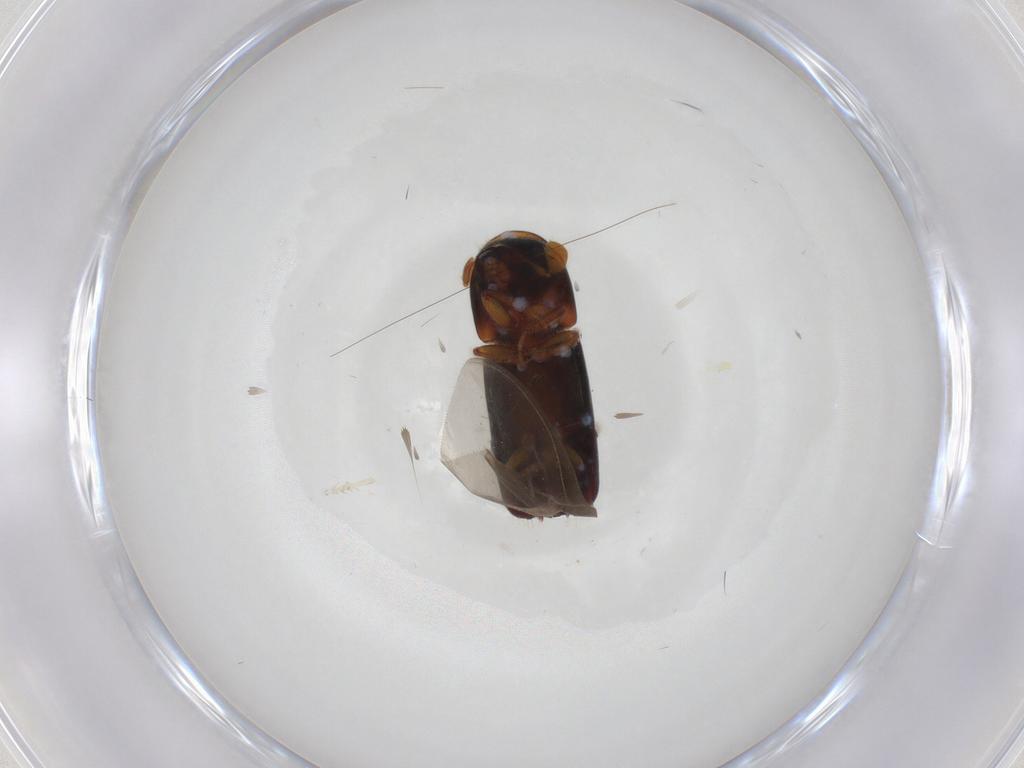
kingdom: Animalia
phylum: Arthropoda
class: Insecta
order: Coleoptera
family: Curculionidae
